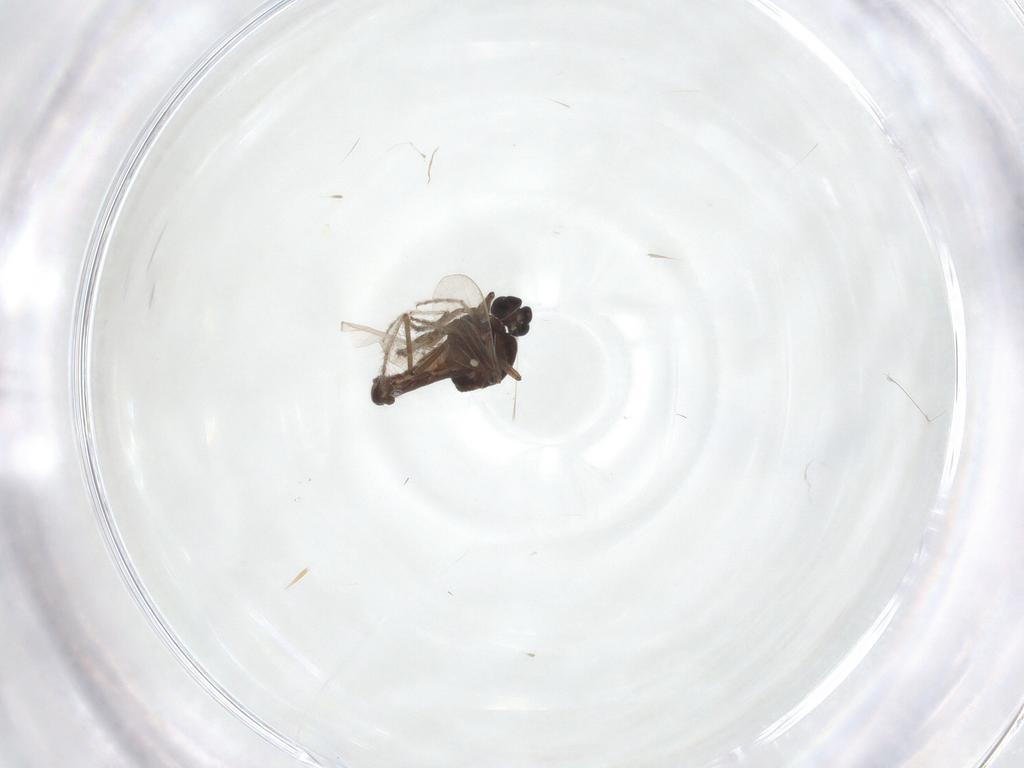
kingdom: Animalia
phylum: Arthropoda
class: Insecta
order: Diptera
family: Ceratopogonidae
